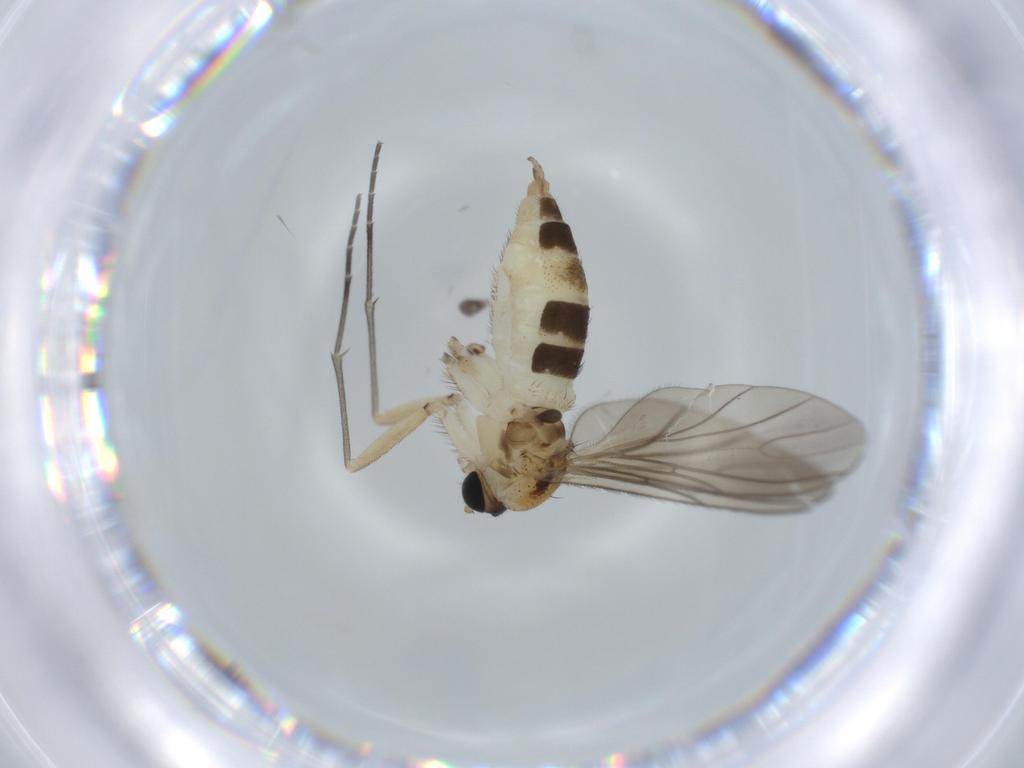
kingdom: Animalia
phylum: Arthropoda
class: Insecta
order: Diptera
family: Sciaridae
